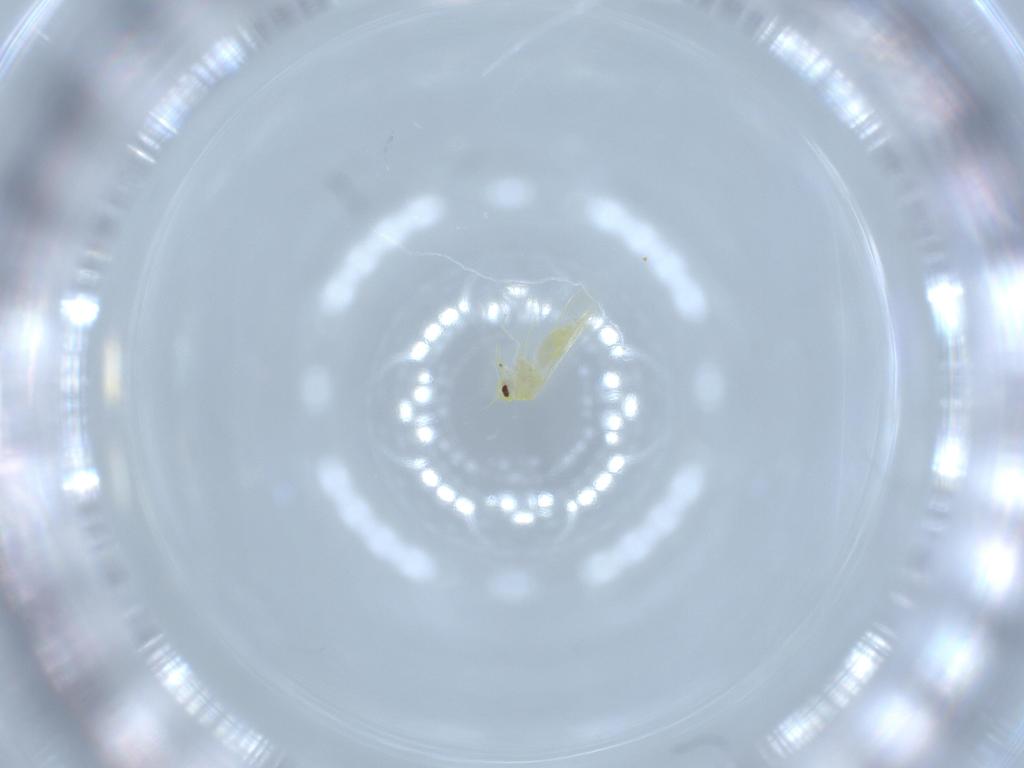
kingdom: Animalia
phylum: Arthropoda
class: Insecta
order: Hemiptera
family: Aleyrodidae
